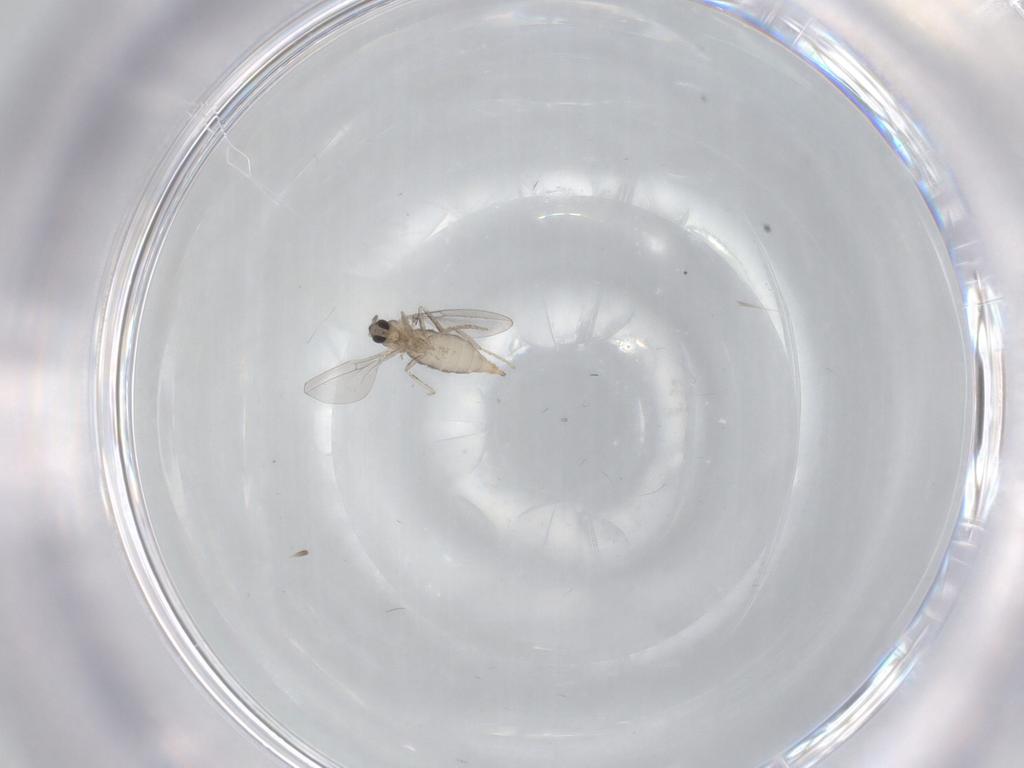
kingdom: Animalia
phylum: Arthropoda
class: Insecta
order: Diptera
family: Cecidomyiidae
